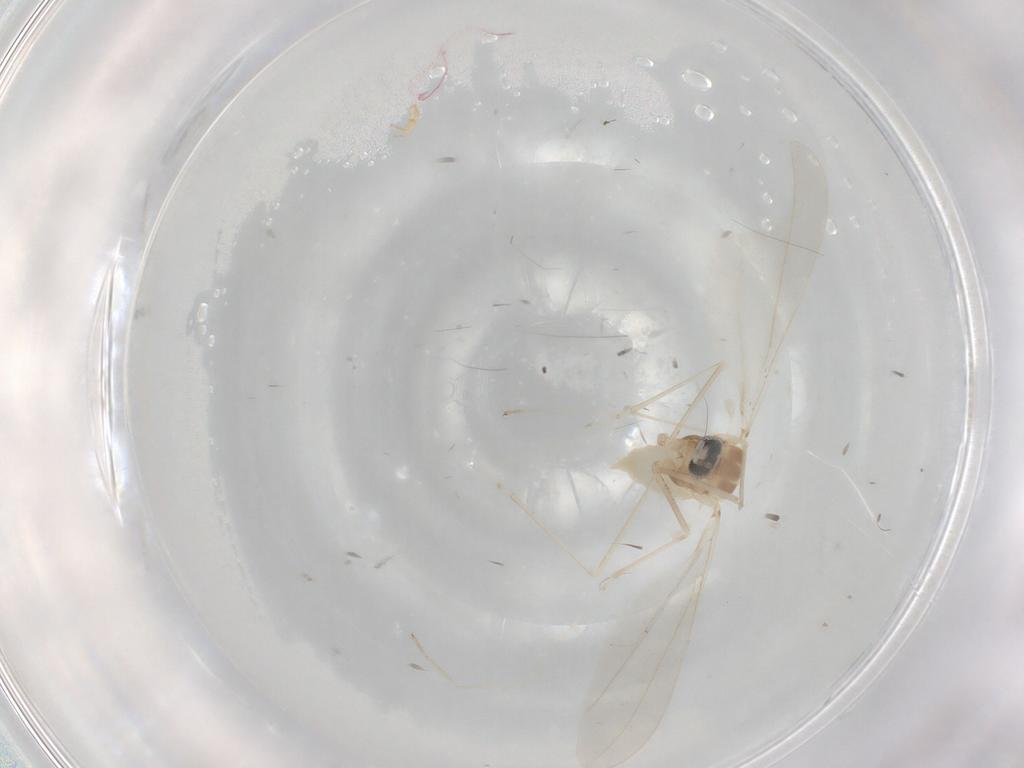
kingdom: Animalia
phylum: Arthropoda
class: Insecta
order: Diptera
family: Cecidomyiidae
